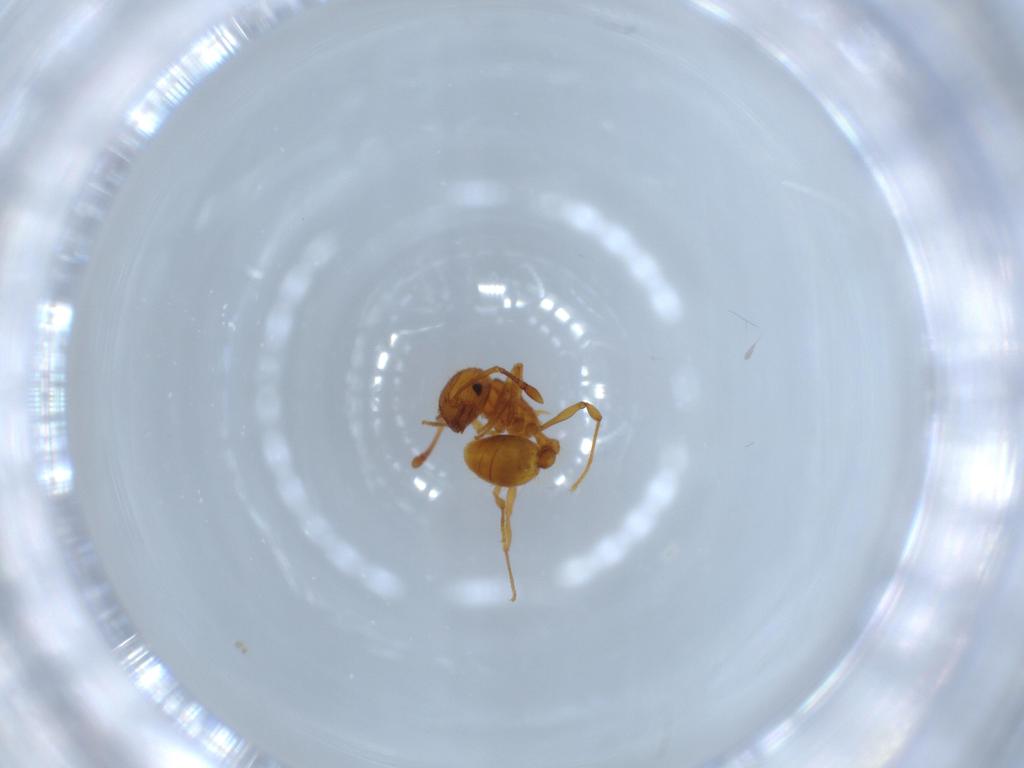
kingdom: Animalia
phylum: Arthropoda
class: Insecta
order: Hymenoptera
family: Formicidae
